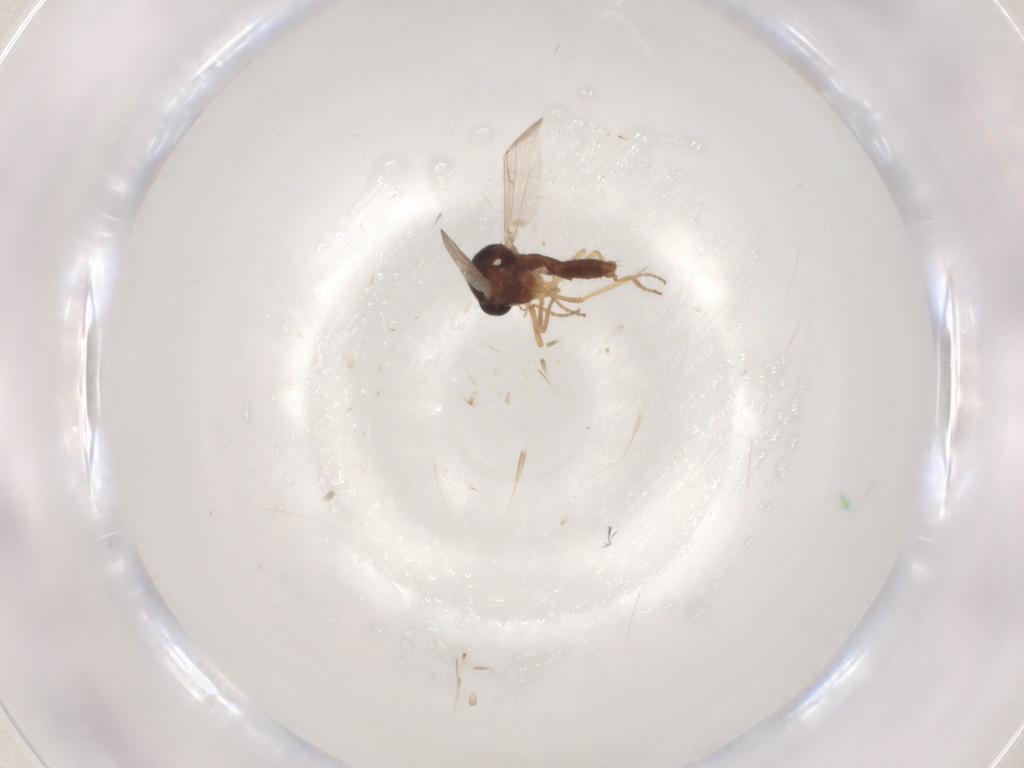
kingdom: Animalia
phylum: Arthropoda
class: Insecta
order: Diptera
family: Ceratopogonidae
